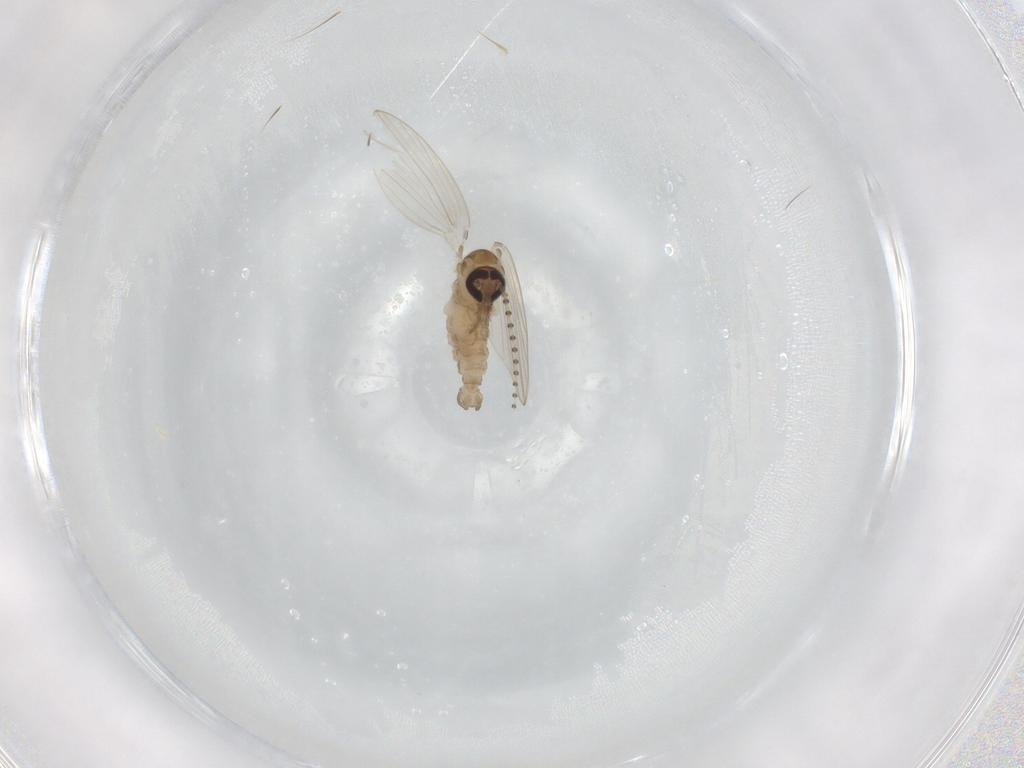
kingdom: Animalia
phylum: Arthropoda
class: Insecta
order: Diptera
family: Psychodidae
